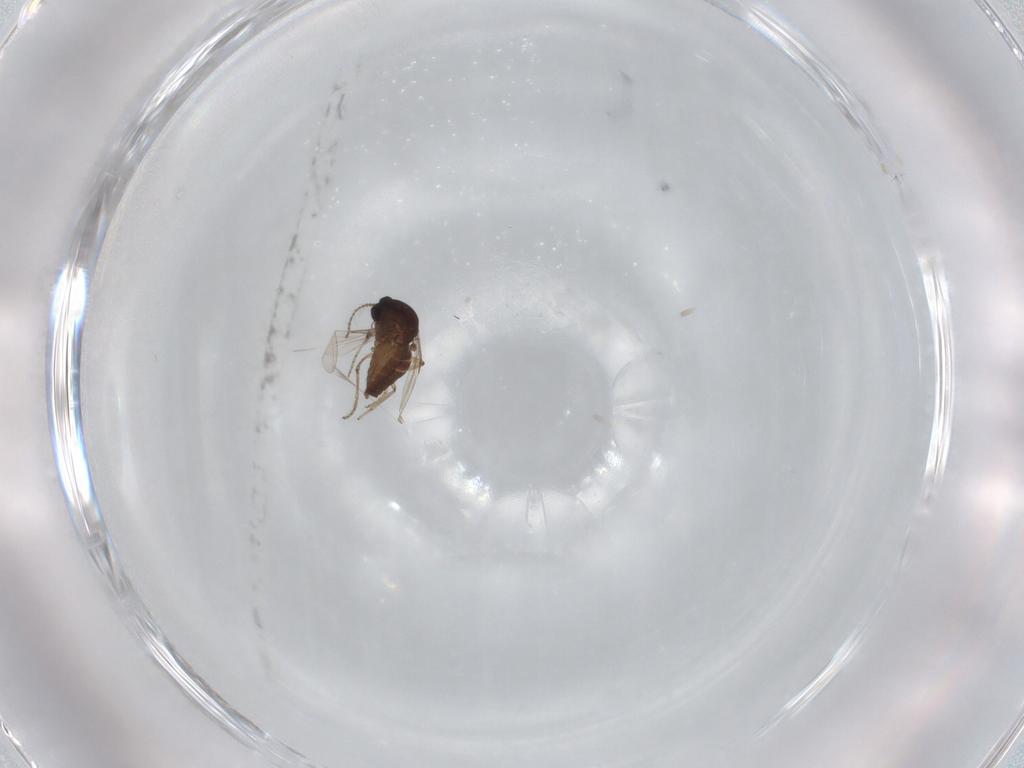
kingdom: Animalia
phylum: Arthropoda
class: Insecta
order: Diptera
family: Ceratopogonidae
